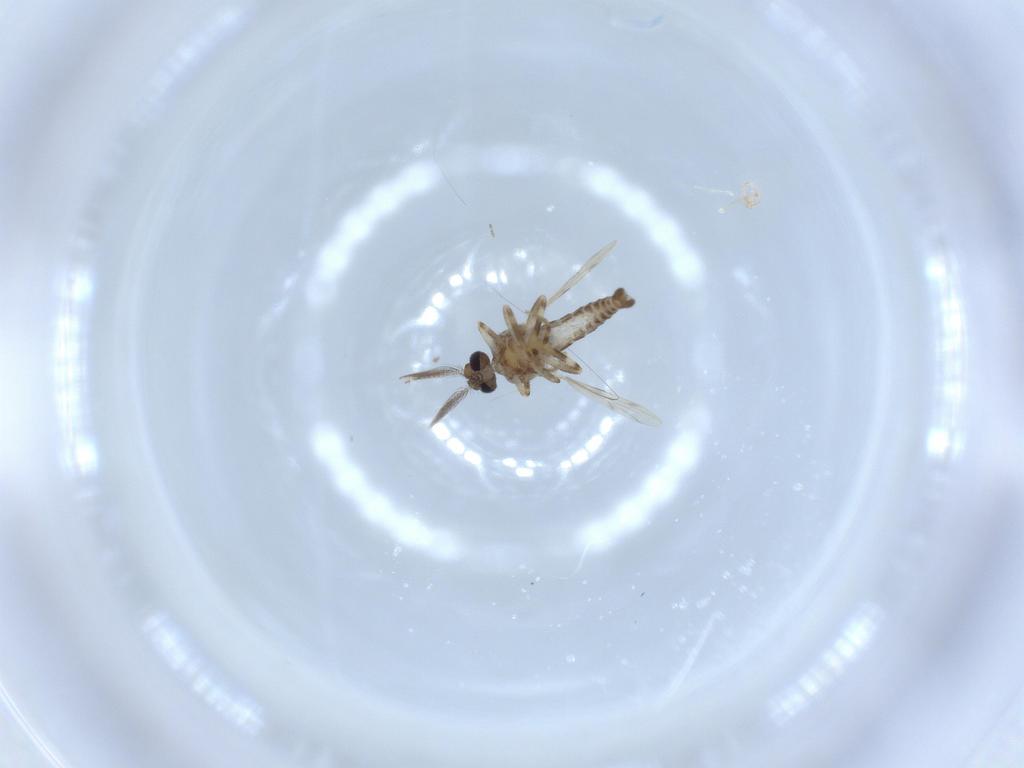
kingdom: Animalia
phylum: Arthropoda
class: Insecta
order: Diptera
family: Ceratopogonidae
